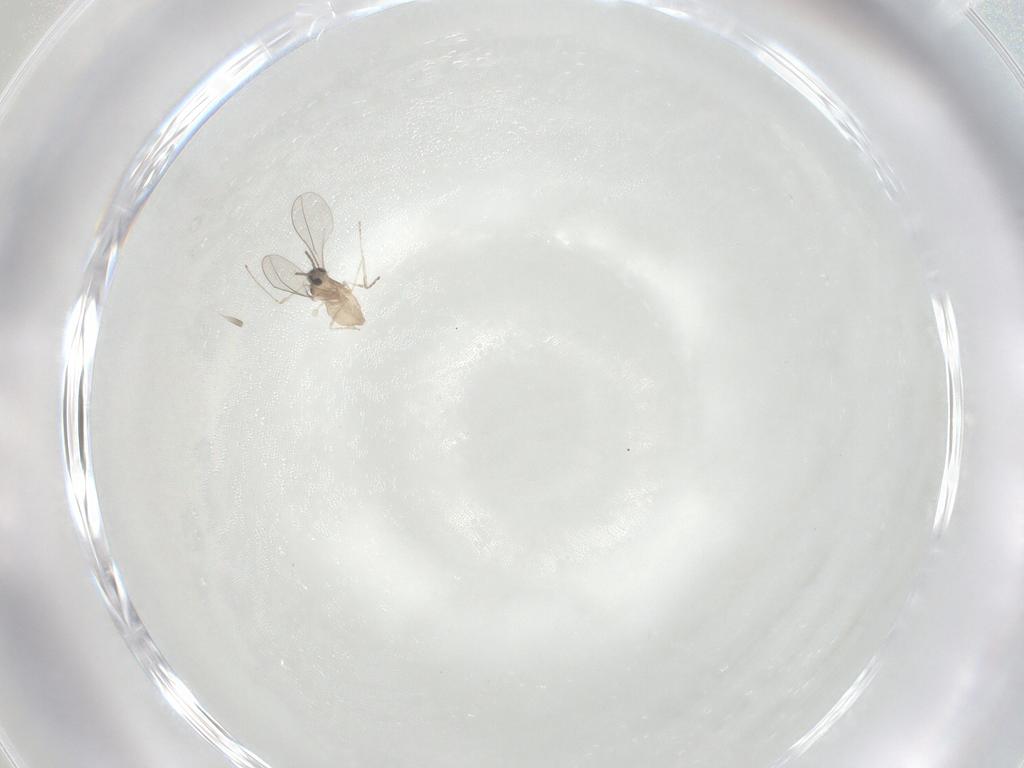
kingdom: Animalia
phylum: Arthropoda
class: Insecta
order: Diptera
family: Cecidomyiidae
